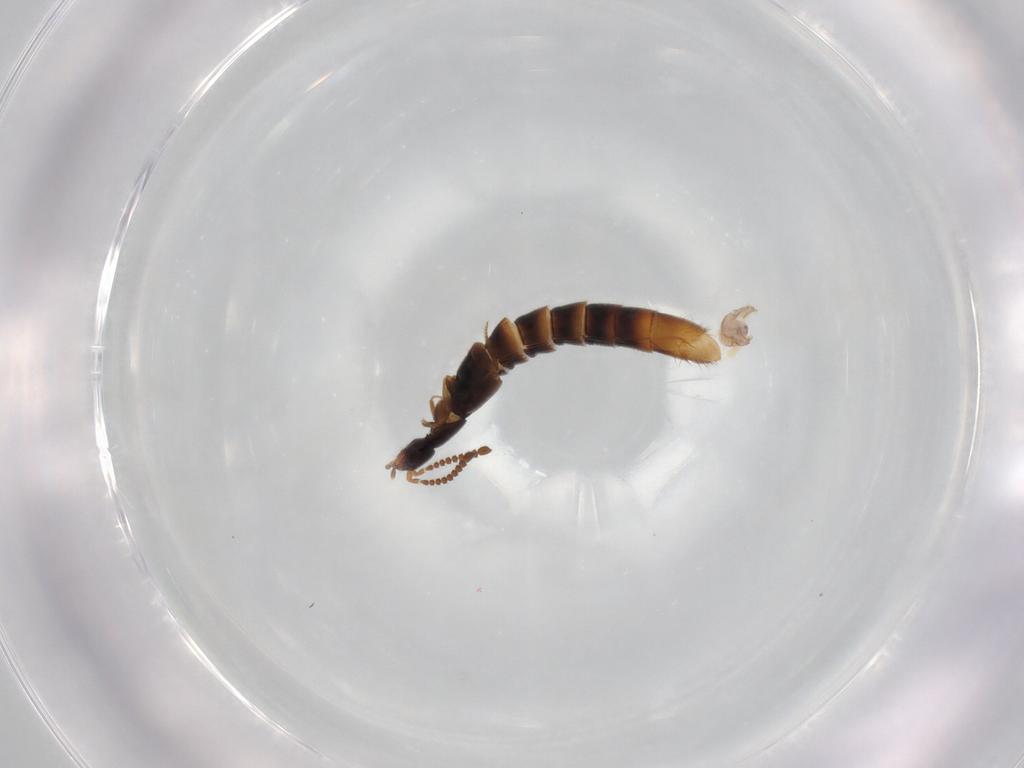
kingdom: Animalia
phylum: Arthropoda
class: Insecta
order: Coleoptera
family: Staphylinidae
